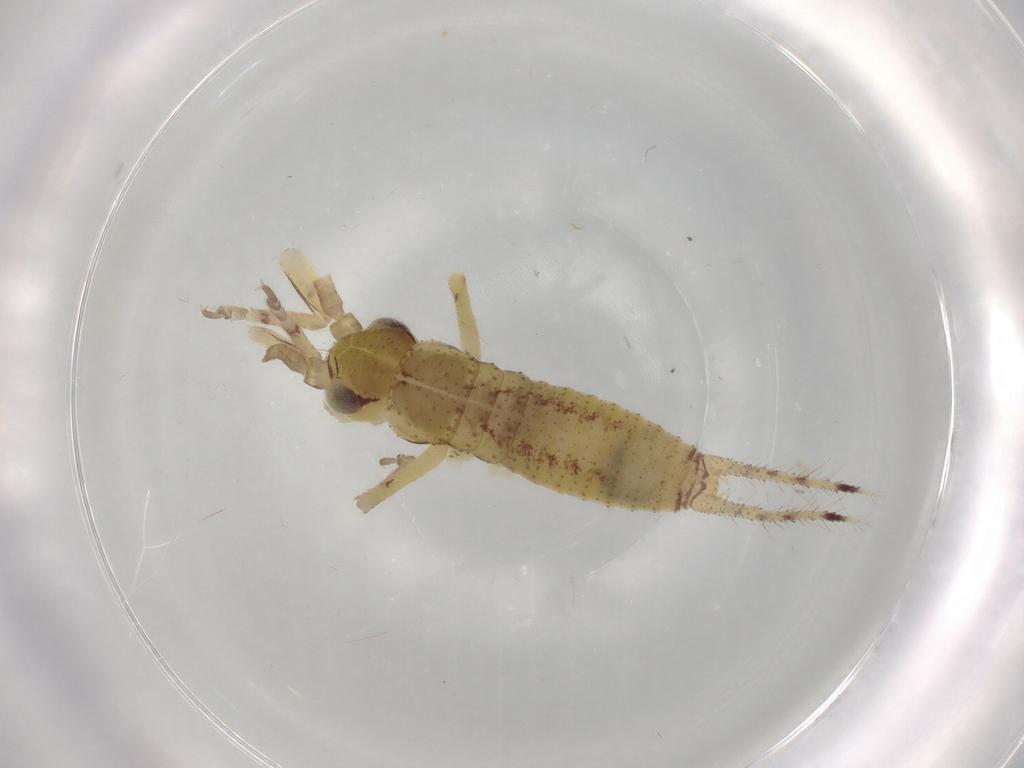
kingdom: Animalia
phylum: Arthropoda
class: Insecta
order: Orthoptera
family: Gryllidae
